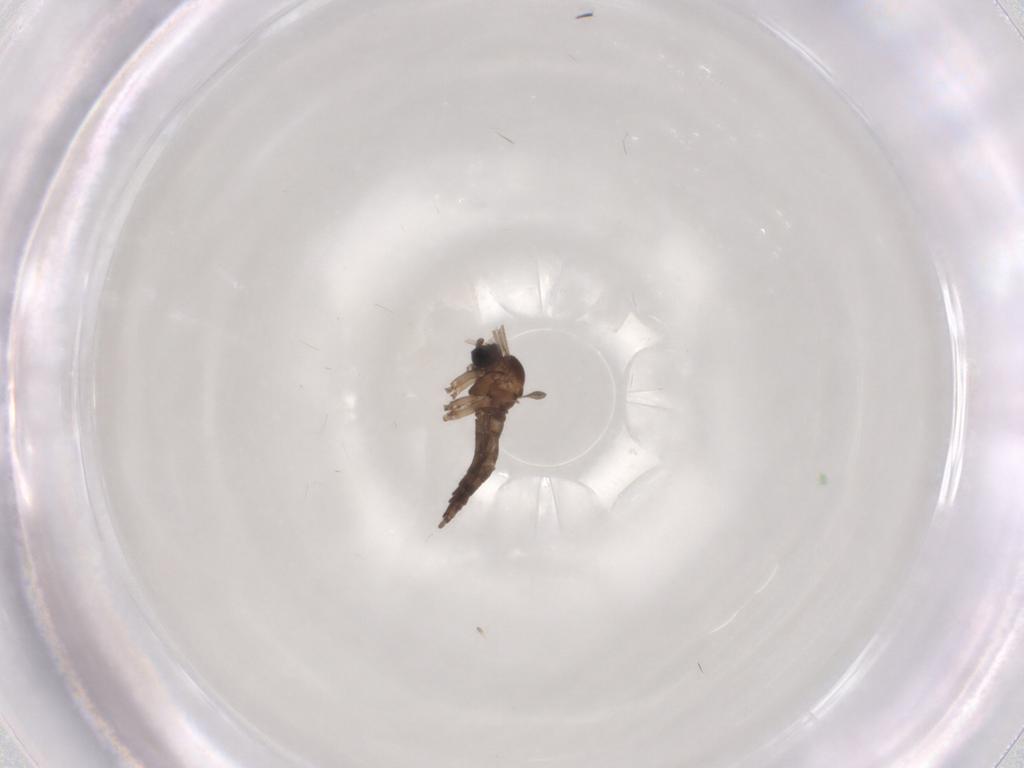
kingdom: Animalia
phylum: Arthropoda
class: Insecta
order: Diptera
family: Sciaridae
